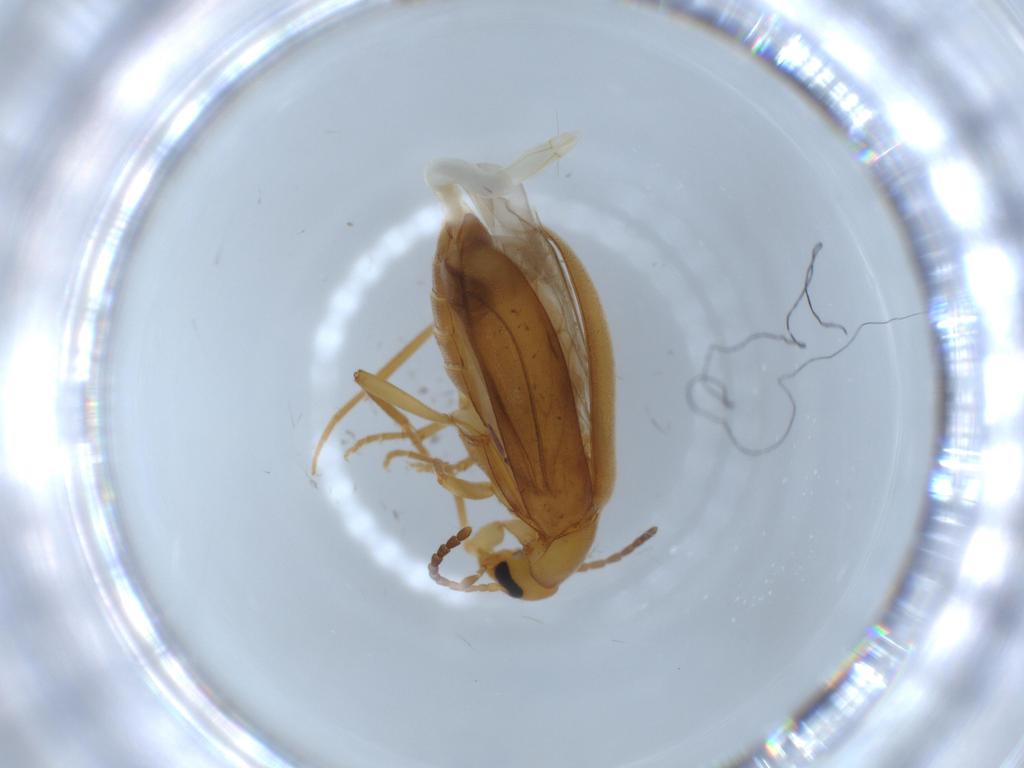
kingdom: Animalia
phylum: Arthropoda
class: Insecta
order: Coleoptera
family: Scraptiidae
